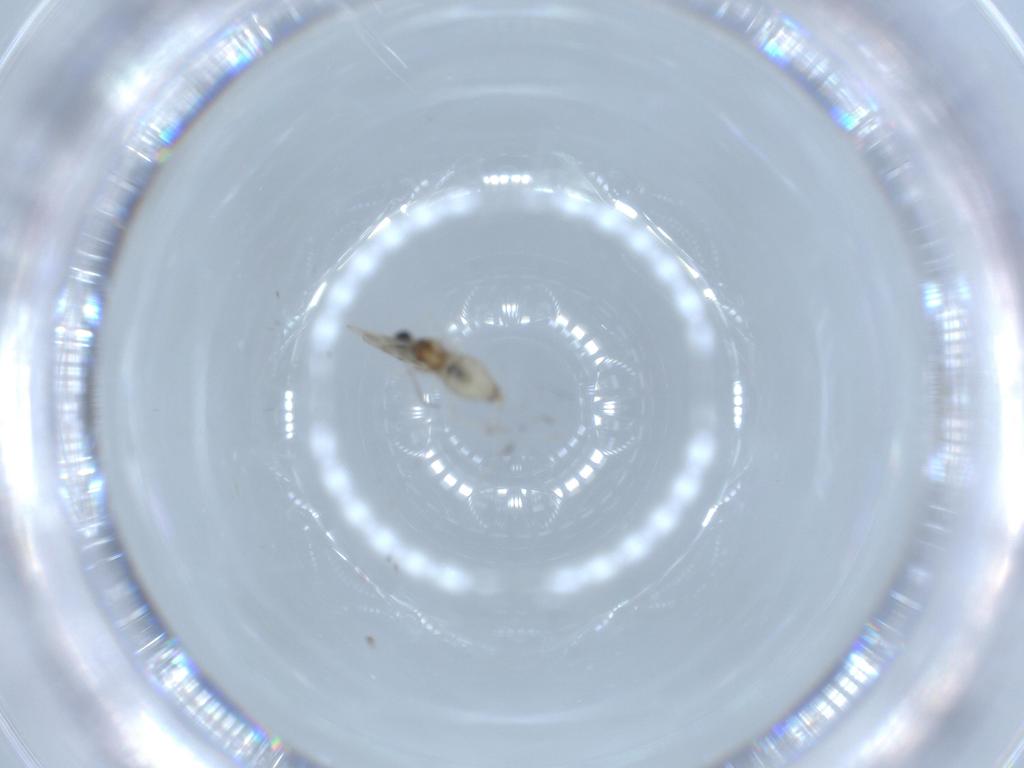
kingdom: Animalia
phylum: Arthropoda
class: Insecta
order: Diptera
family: Cecidomyiidae
